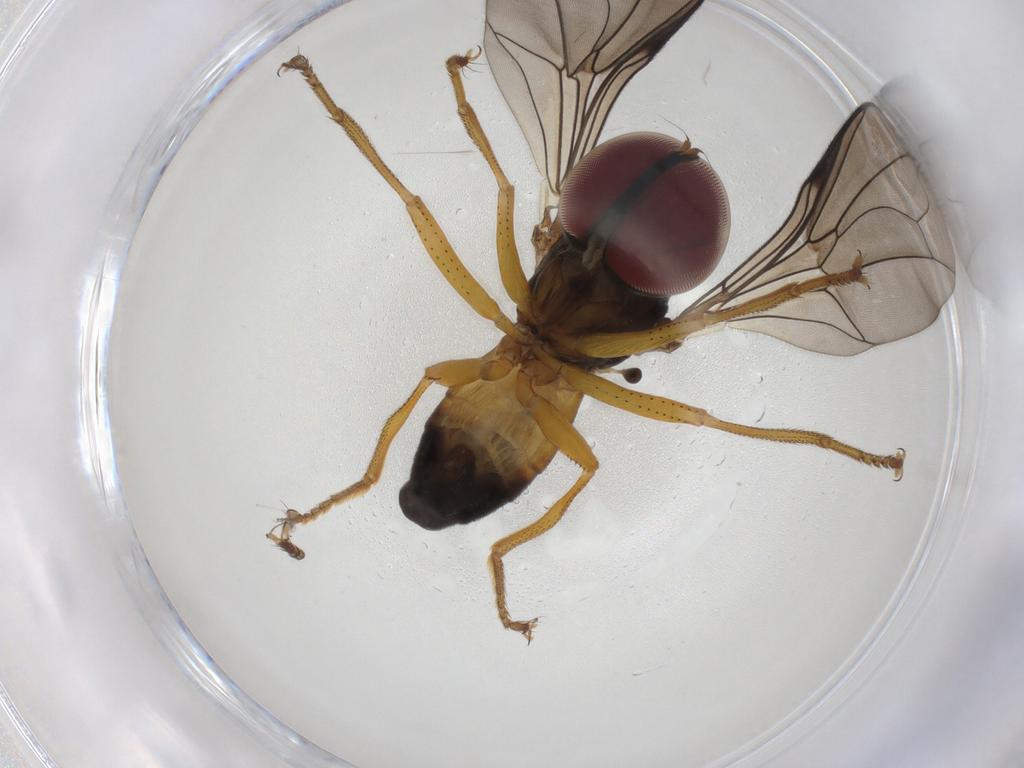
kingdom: Animalia
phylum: Arthropoda
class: Insecta
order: Diptera
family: Pipunculidae
